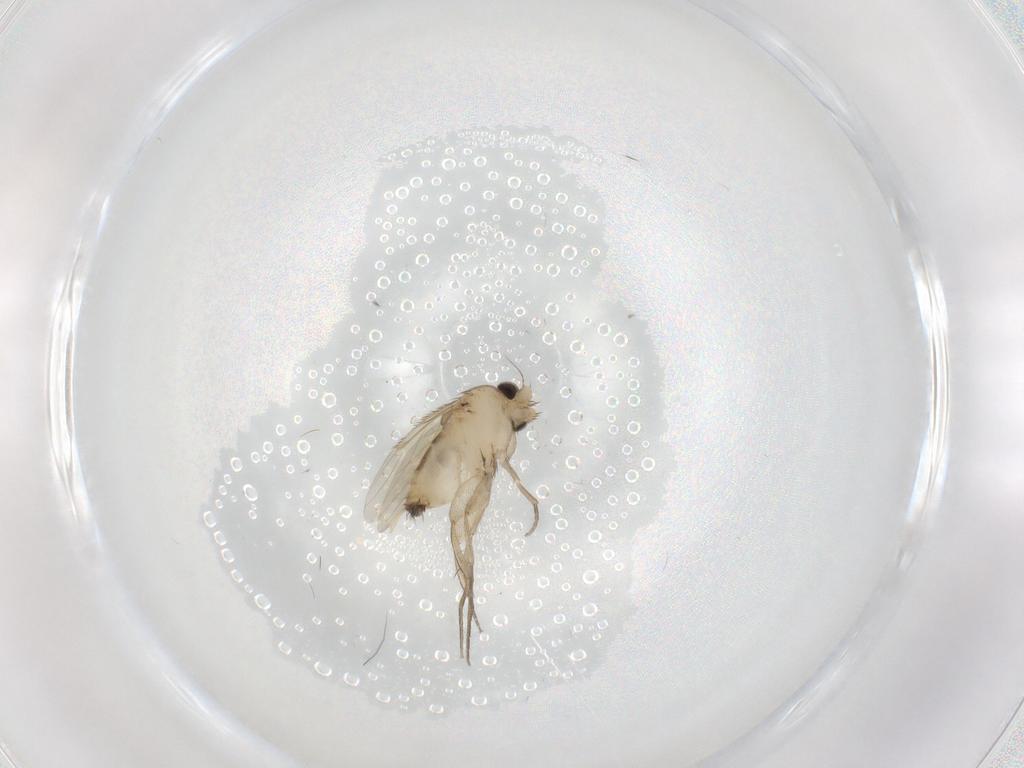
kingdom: Animalia
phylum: Arthropoda
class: Insecta
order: Diptera
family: Phoridae
